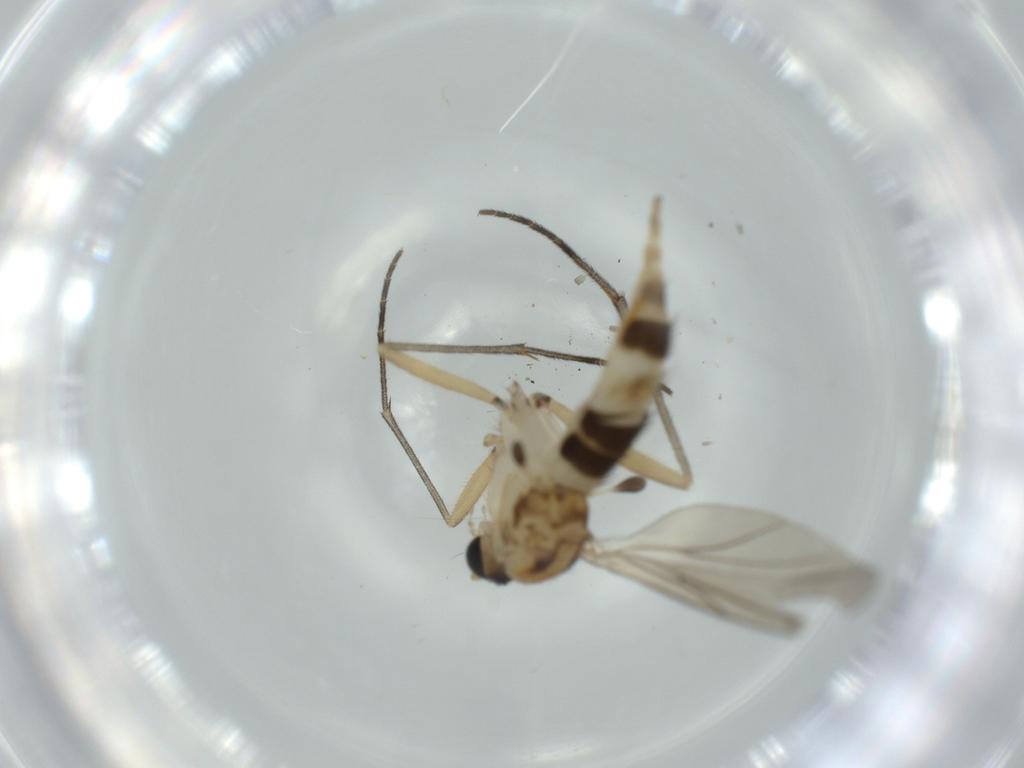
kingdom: Animalia
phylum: Arthropoda
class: Insecta
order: Diptera
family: Sciaridae
